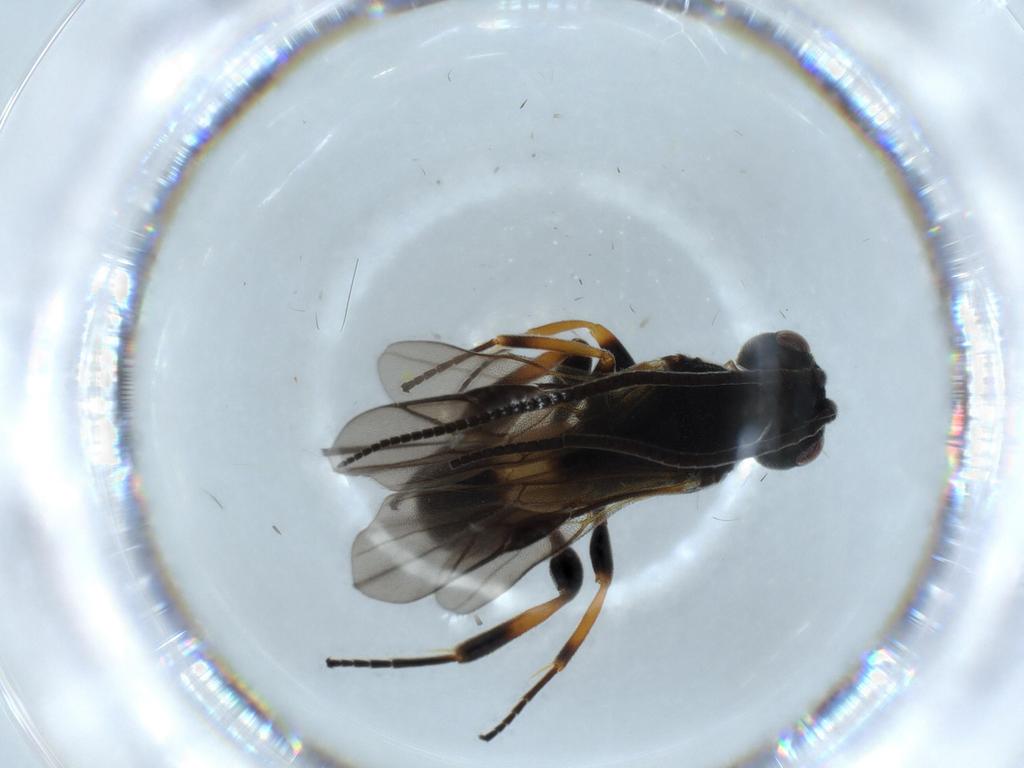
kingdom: Animalia
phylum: Arthropoda
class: Insecta
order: Hymenoptera
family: Braconidae
